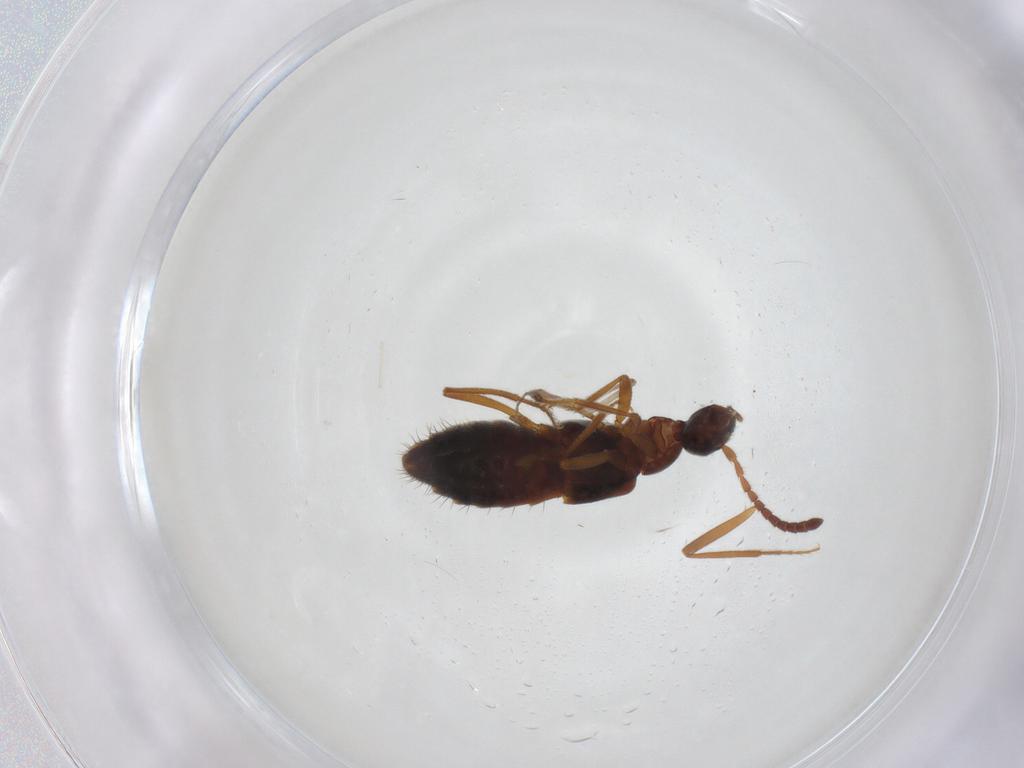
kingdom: Animalia
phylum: Arthropoda
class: Insecta
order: Coleoptera
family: Staphylinidae
